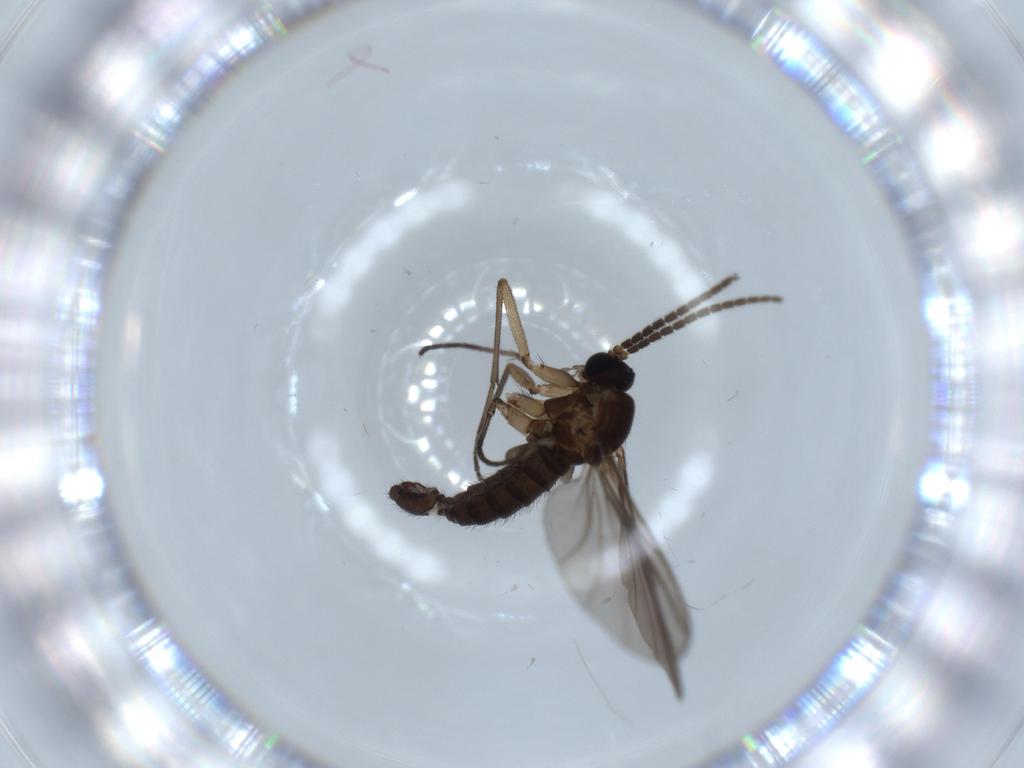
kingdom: Animalia
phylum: Arthropoda
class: Insecta
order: Diptera
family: Sciaridae
